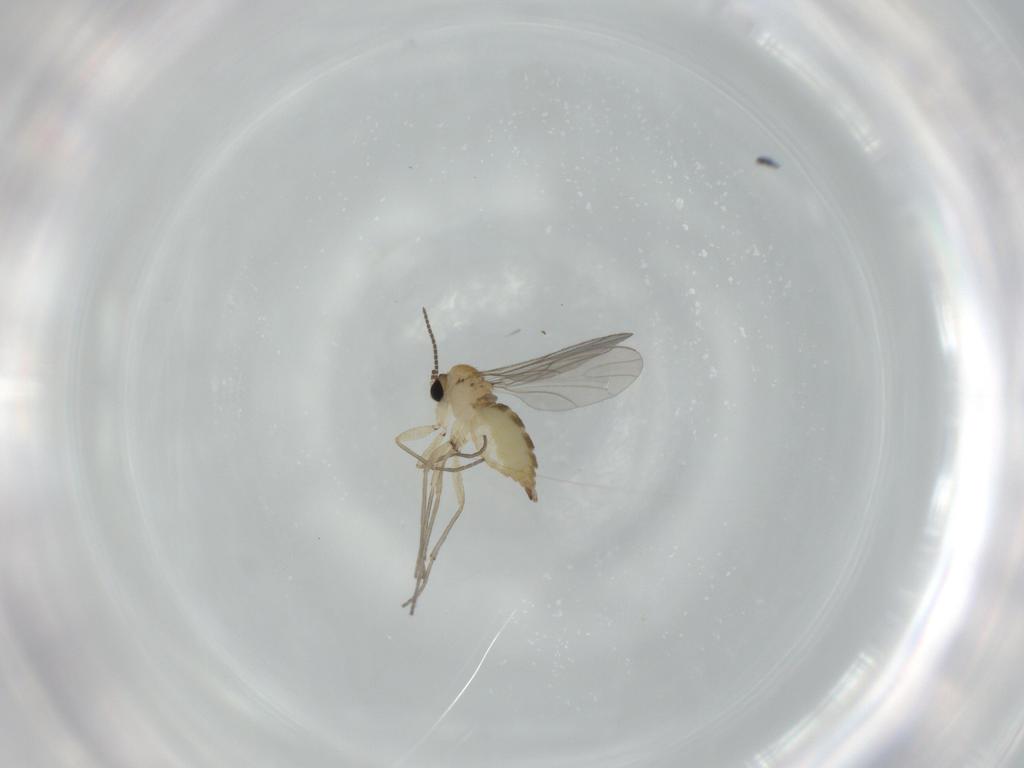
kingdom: Animalia
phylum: Arthropoda
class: Insecta
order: Diptera
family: Sciaridae
